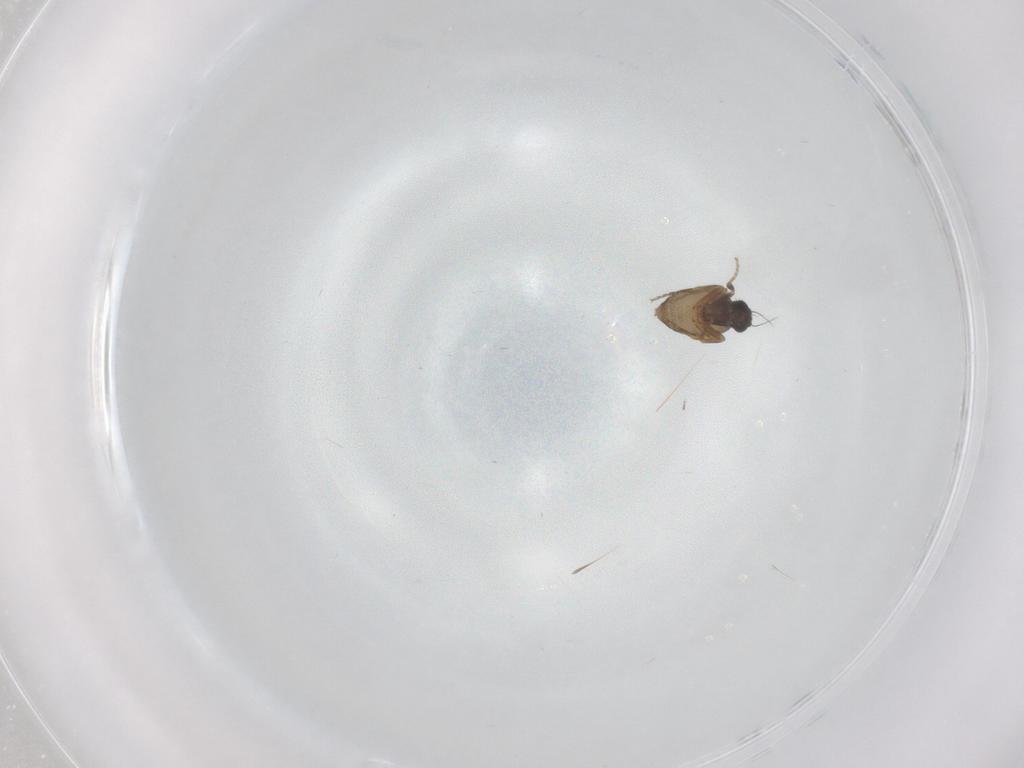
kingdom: Animalia
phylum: Arthropoda
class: Insecta
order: Diptera
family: Phoridae
